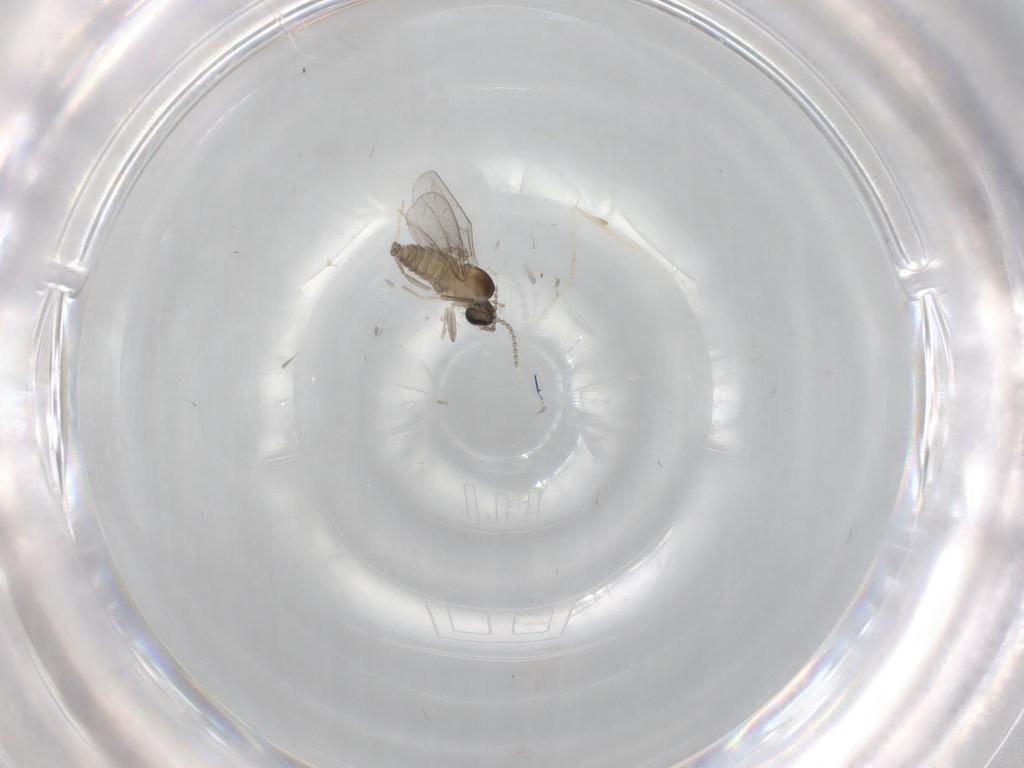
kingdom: Animalia
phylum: Arthropoda
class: Insecta
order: Diptera
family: Cecidomyiidae
